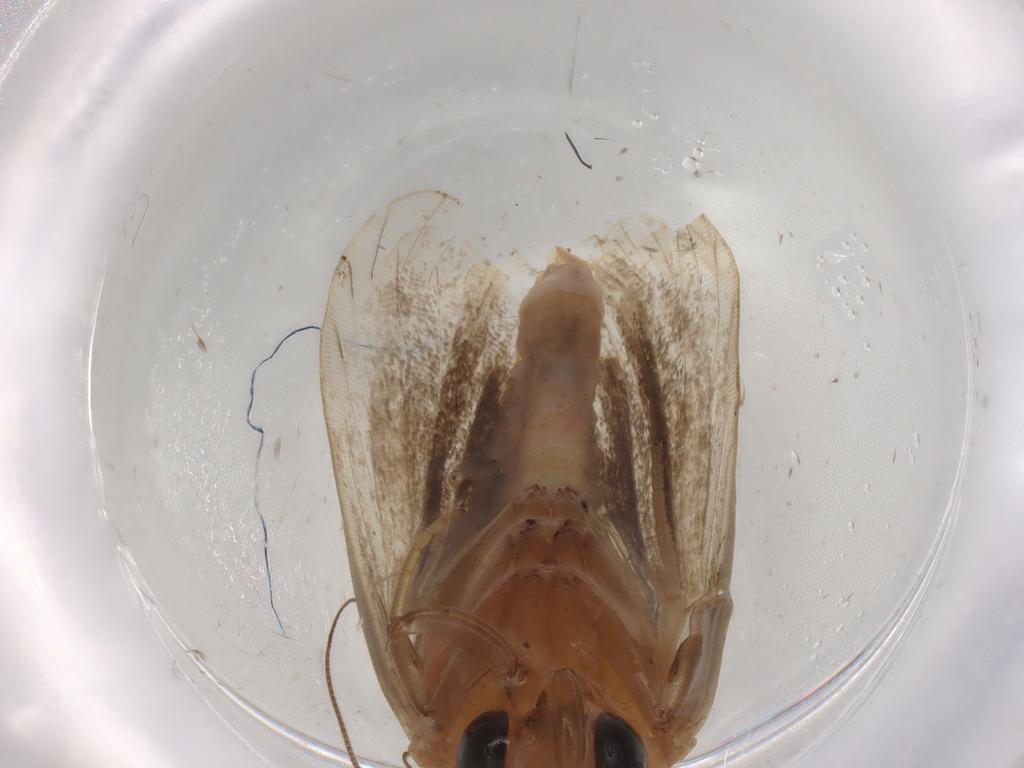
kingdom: Animalia
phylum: Arthropoda
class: Insecta
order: Lepidoptera
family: Immidae
